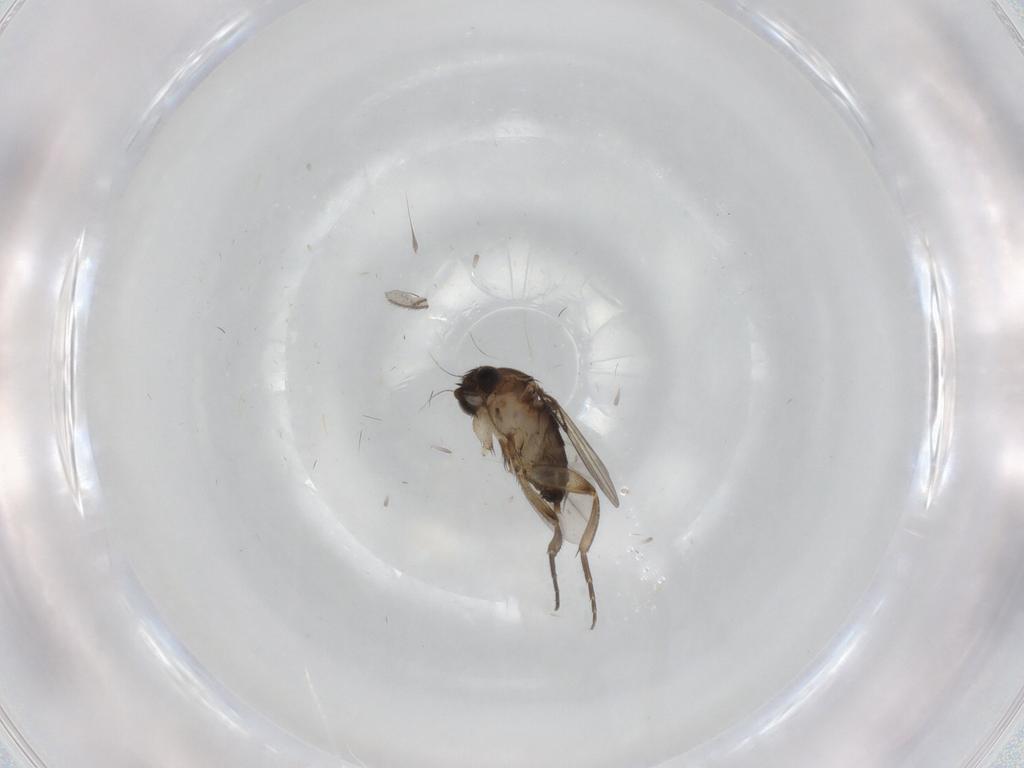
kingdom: Animalia
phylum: Arthropoda
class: Insecta
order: Diptera
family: Phoridae
